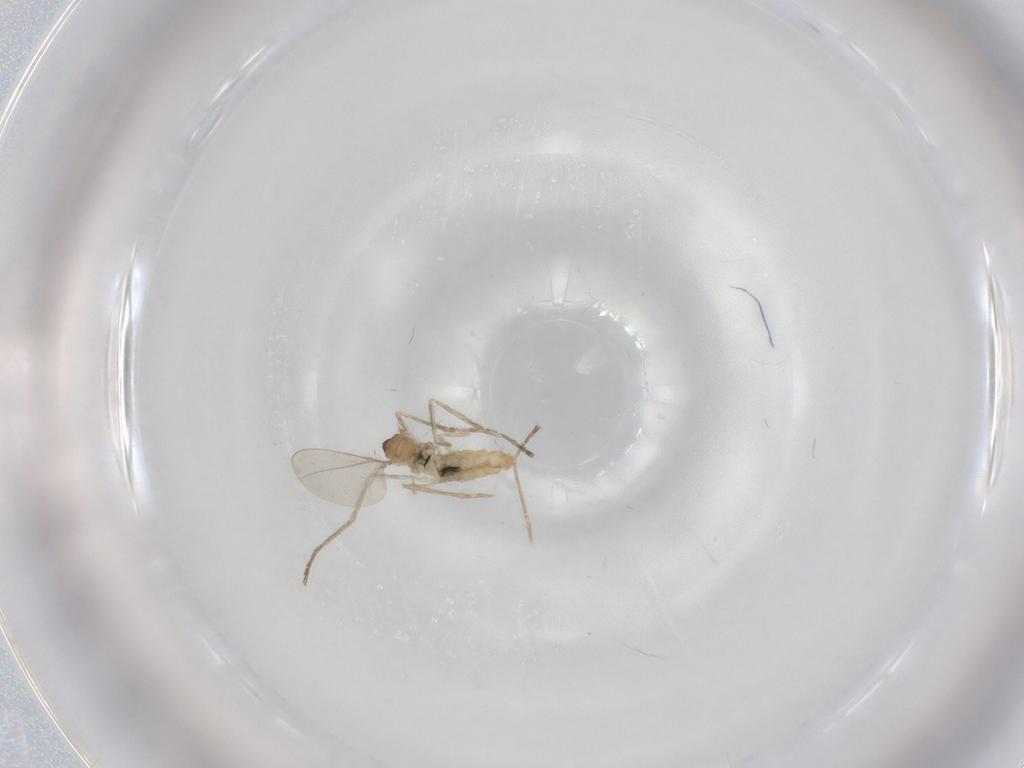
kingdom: Animalia
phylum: Arthropoda
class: Insecta
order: Diptera
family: Cecidomyiidae
